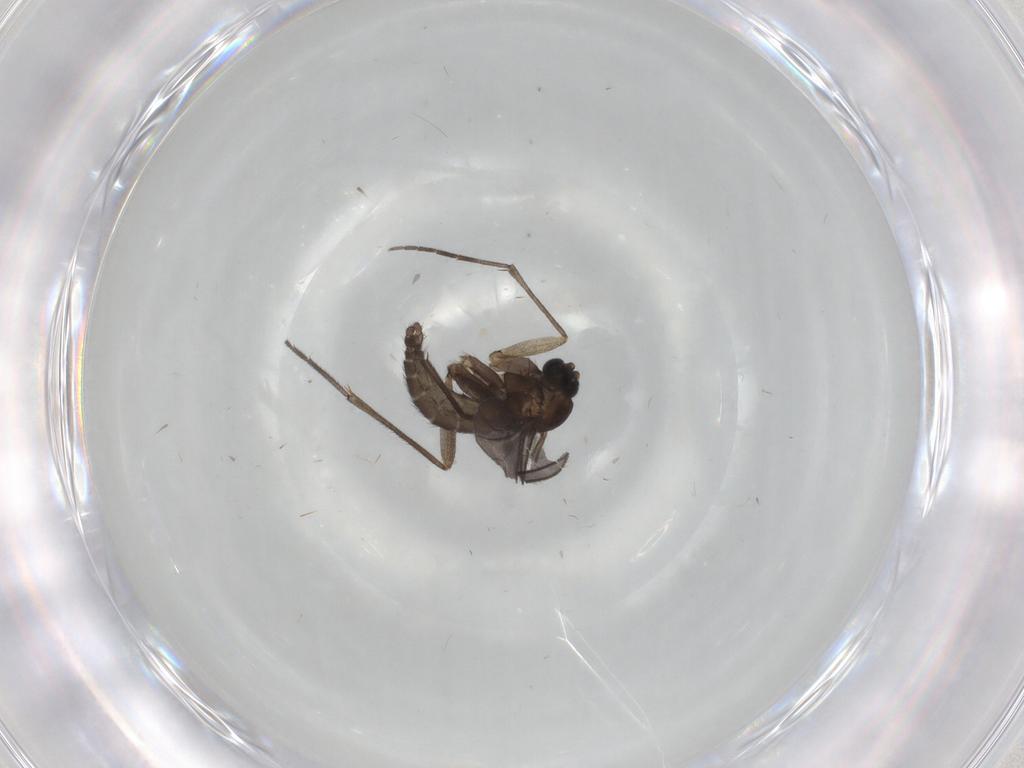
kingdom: Animalia
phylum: Arthropoda
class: Insecta
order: Diptera
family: Sciaridae
